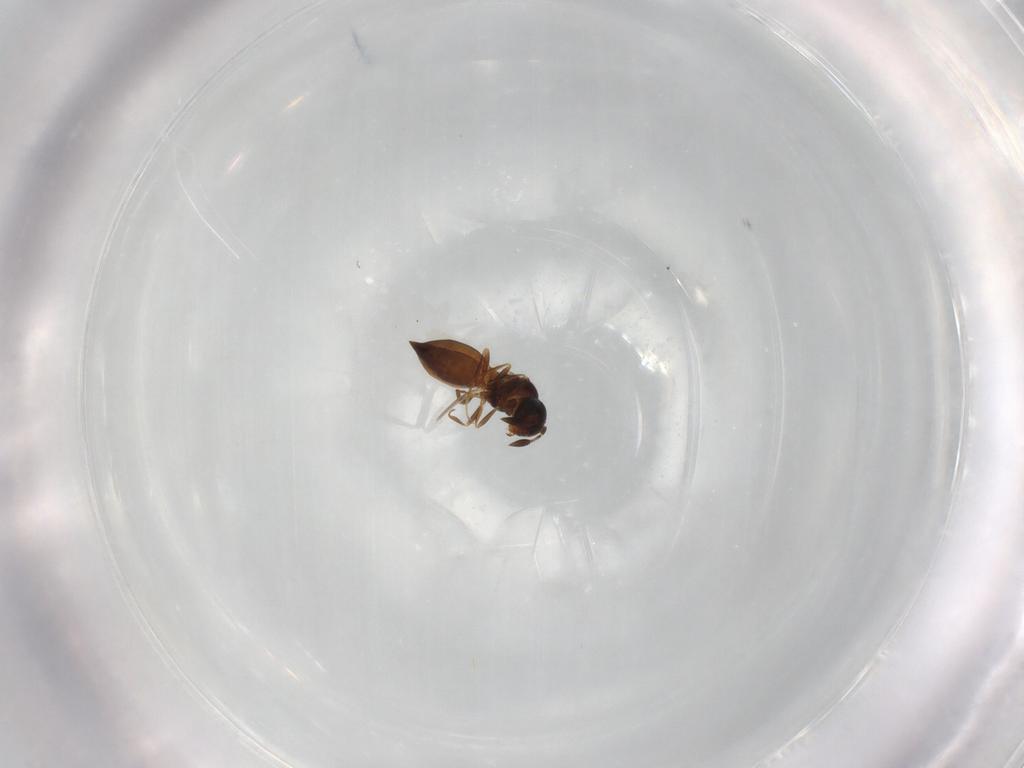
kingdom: Animalia
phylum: Arthropoda
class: Insecta
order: Hymenoptera
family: Scelionidae
